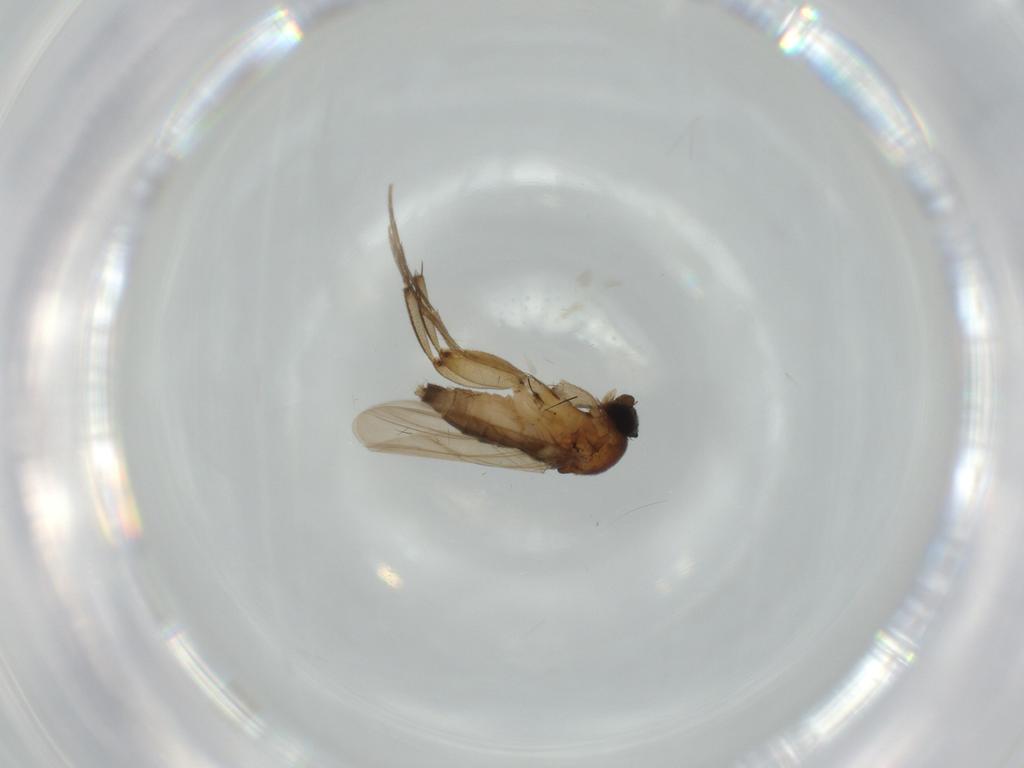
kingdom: Animalia
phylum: Arthropoda
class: Insecta
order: Diptera
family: Phoridae
